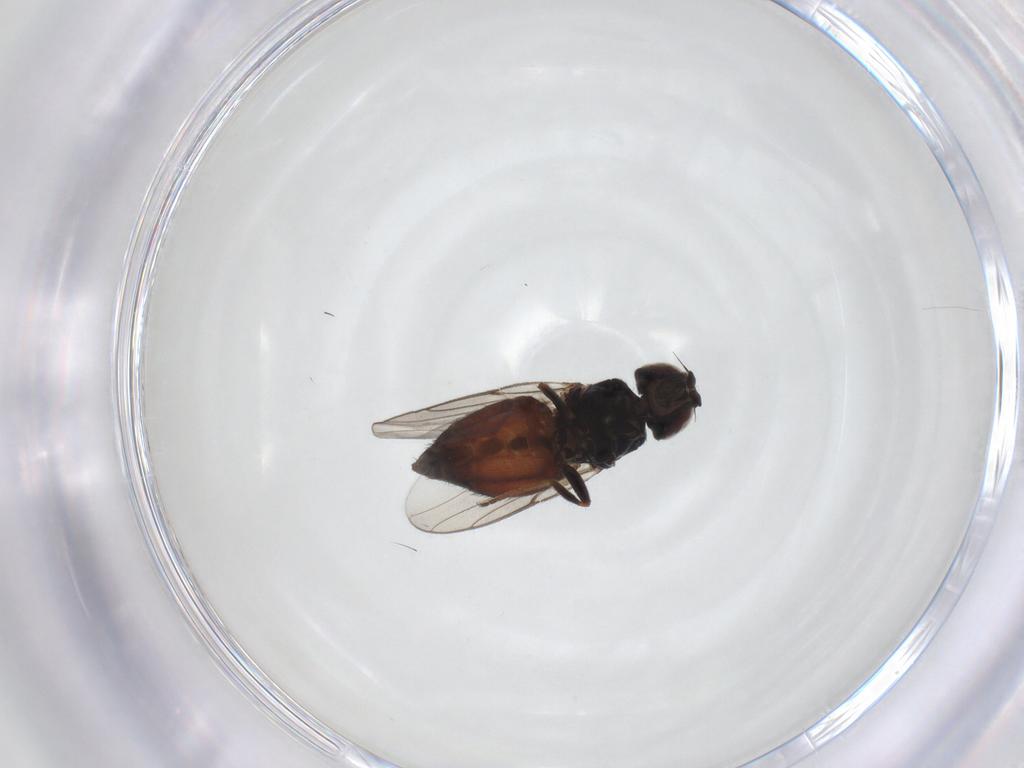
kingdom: Animalia
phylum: Arthropoda
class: Insecta
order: Diptera
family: Chloropidae
